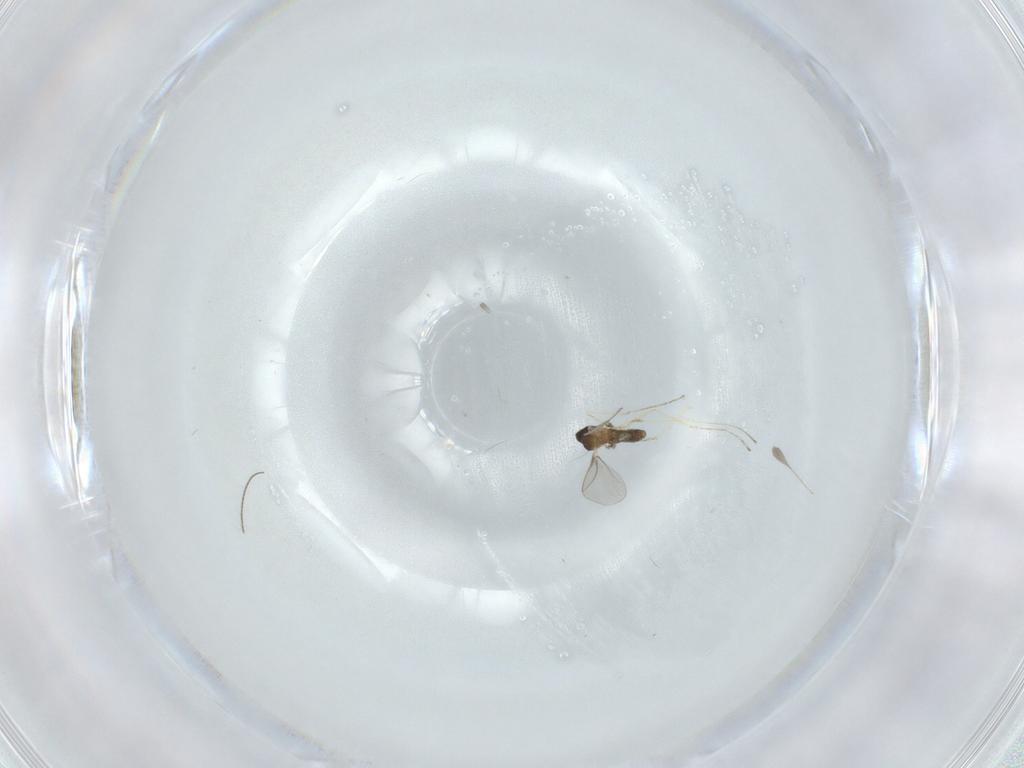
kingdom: Animalia
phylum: Arthropoda
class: Insecta
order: Diptera
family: Cecidomyiidae
